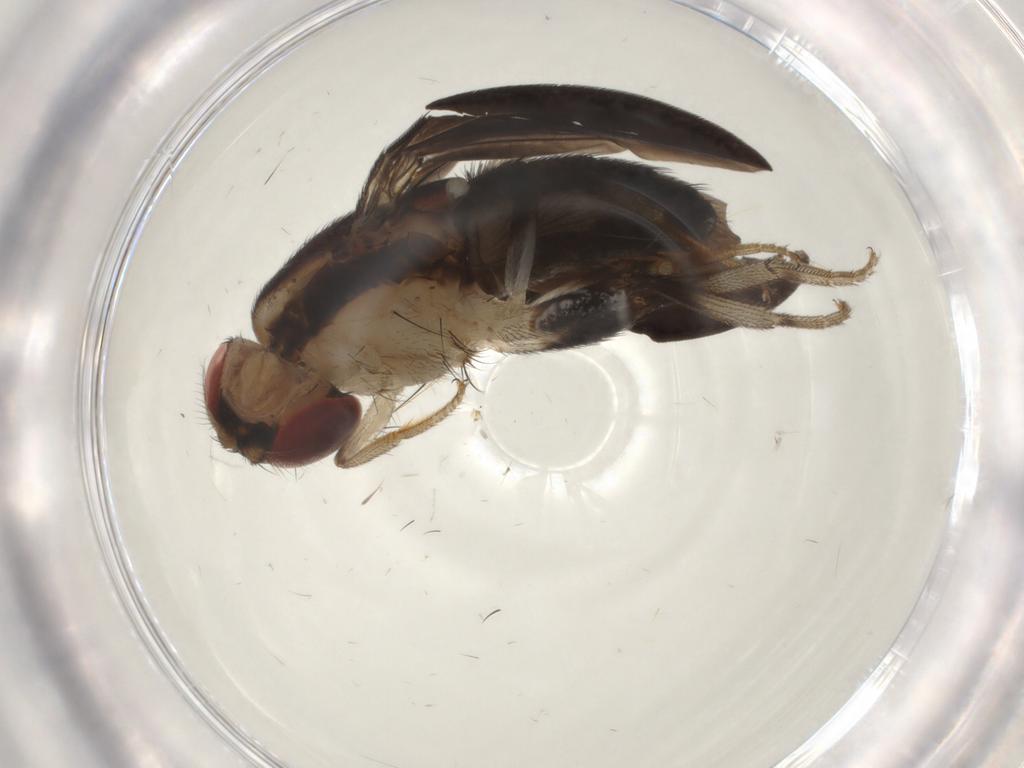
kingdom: Animalia
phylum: Arthropoda
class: Insecta
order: Diptera
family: Drosophilidae
